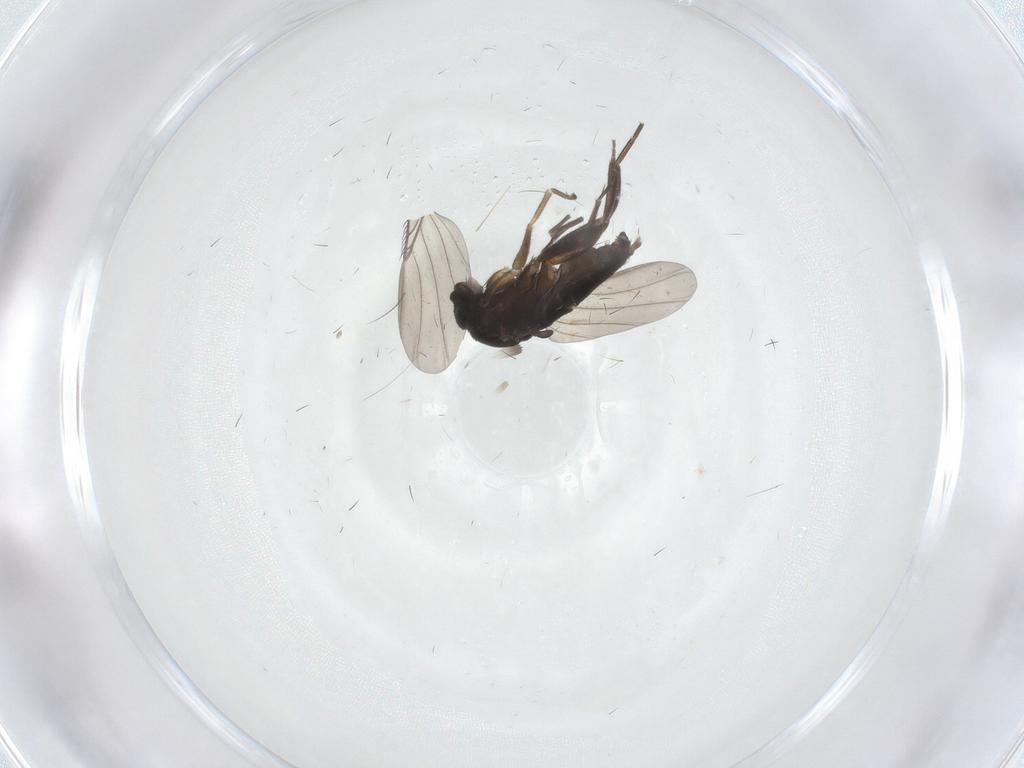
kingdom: Animalia
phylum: Arthropoda
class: Insecta
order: Diptera
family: Phoridae
